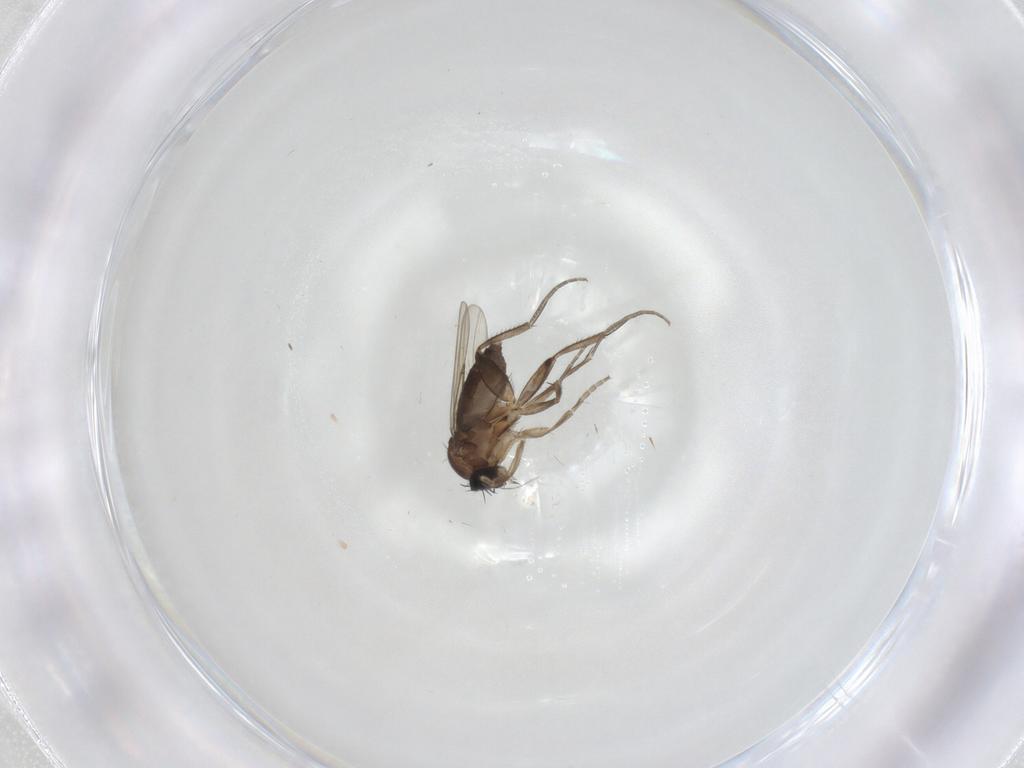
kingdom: Animalia
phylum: Arthropoda
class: Insecta
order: Diptera
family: Phoridae
